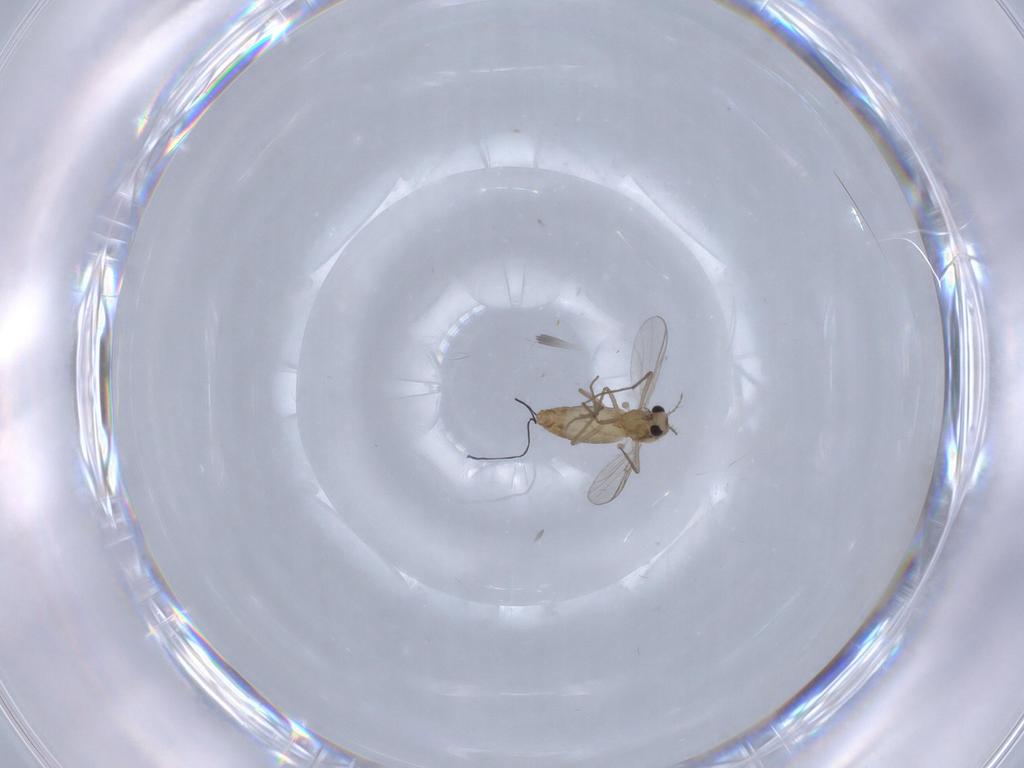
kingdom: Animalia
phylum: Arthropoda
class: Insecta
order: Diptera
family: Chironomidae
